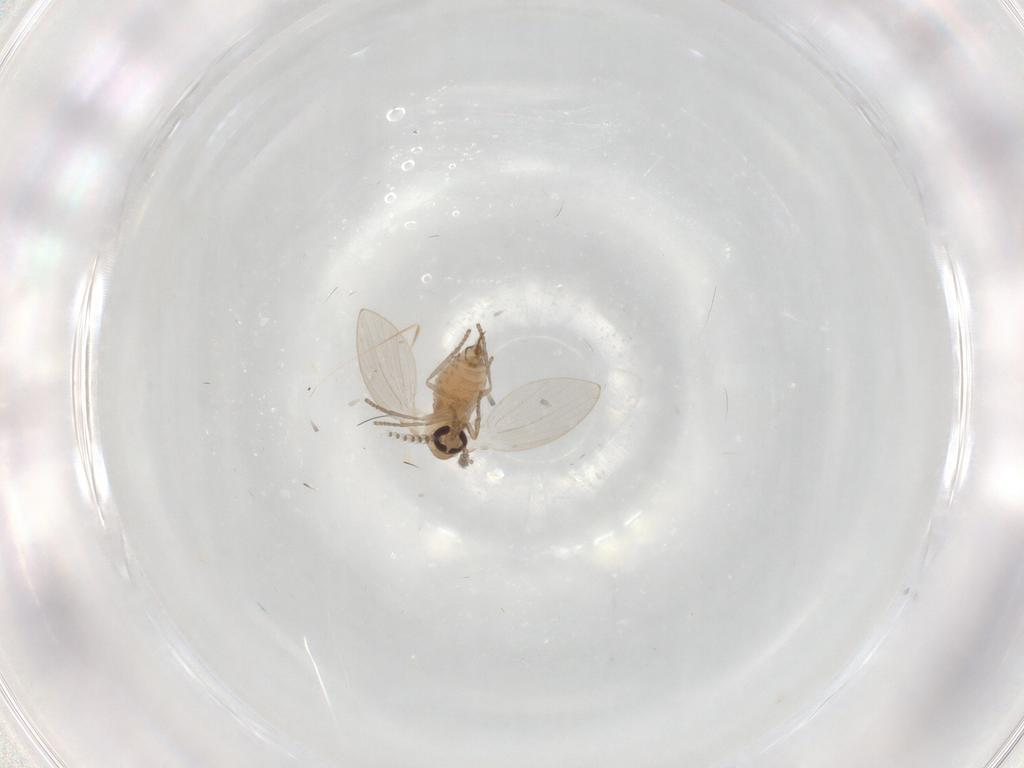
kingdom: Animalia
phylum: Arthropoda
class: Insecta
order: Diptera
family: Psychodidae
